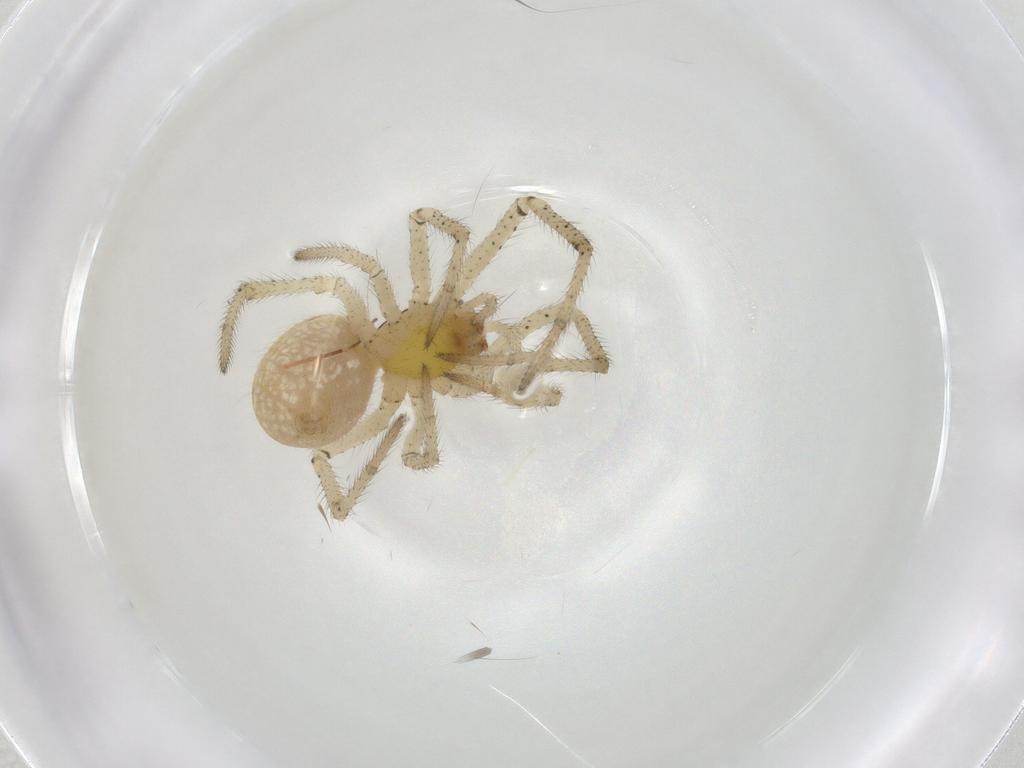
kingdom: Animalia
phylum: Arthropoda
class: Arachnida
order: Araneae
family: Theridiidae
